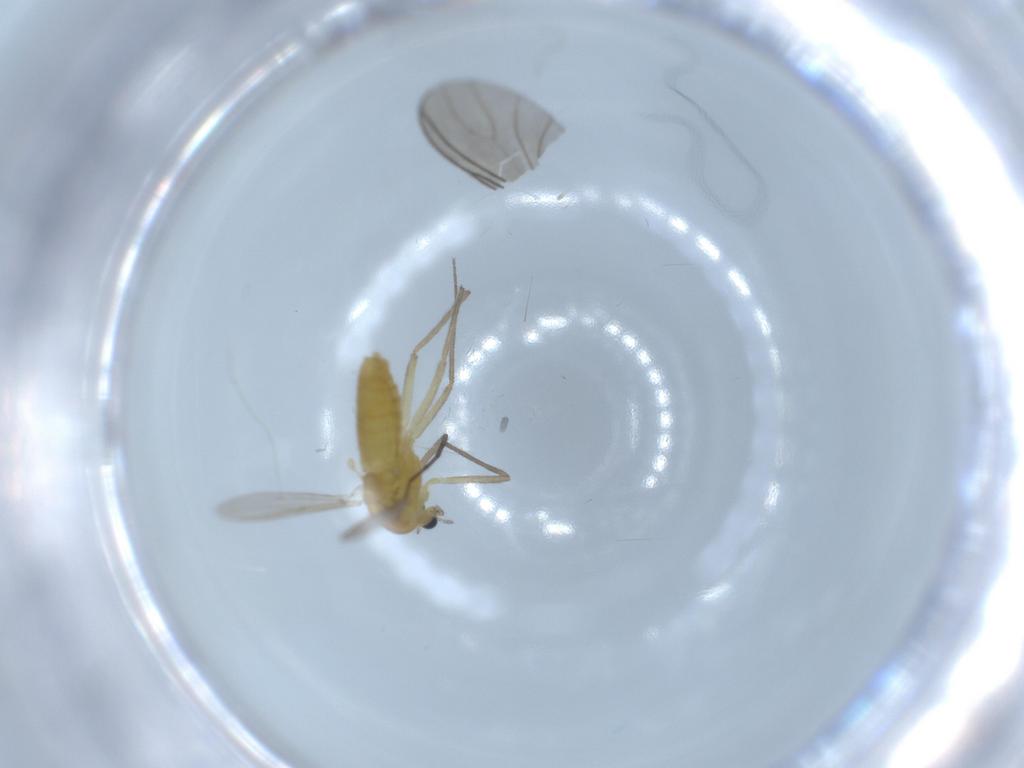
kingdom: Animalia
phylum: Arthropoda
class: Insecta
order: Diptera
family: Chironomidae
